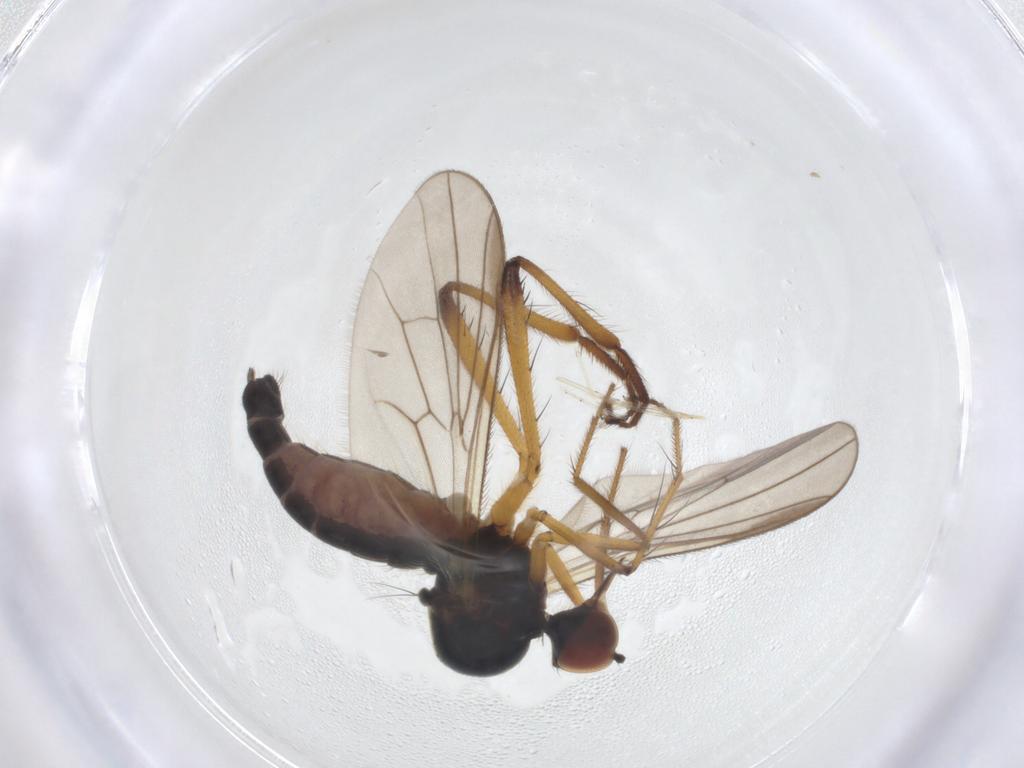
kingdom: Animalia
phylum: Arthropoda
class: Insecta
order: Diptera
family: Hybotidae
